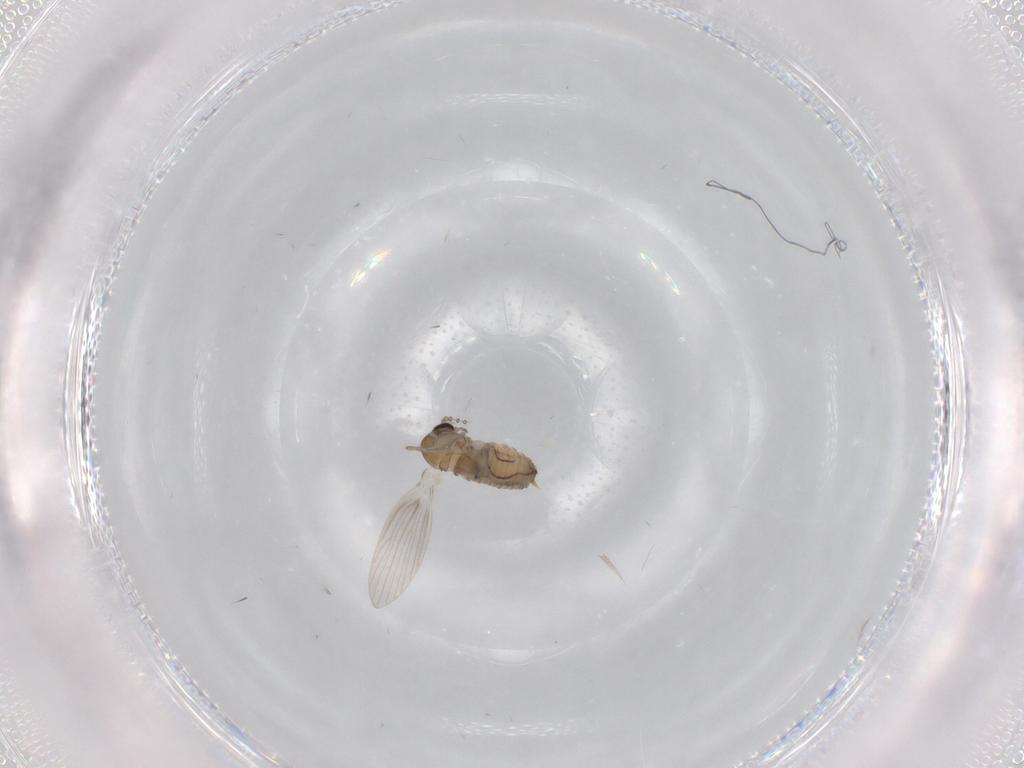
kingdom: Animalia
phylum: Arthropoda
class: Insecta
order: Diptera
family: Psychodidae
